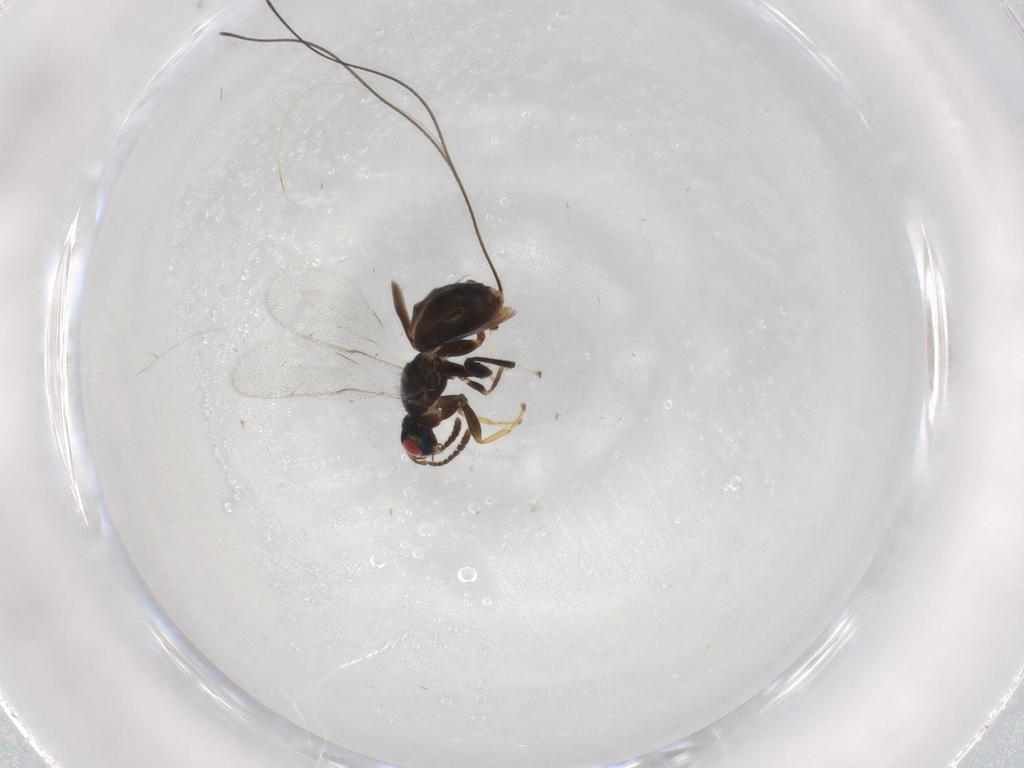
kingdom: Animalia
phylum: Arthropoda
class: Insecta
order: Hymenoptera
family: Torymidae
